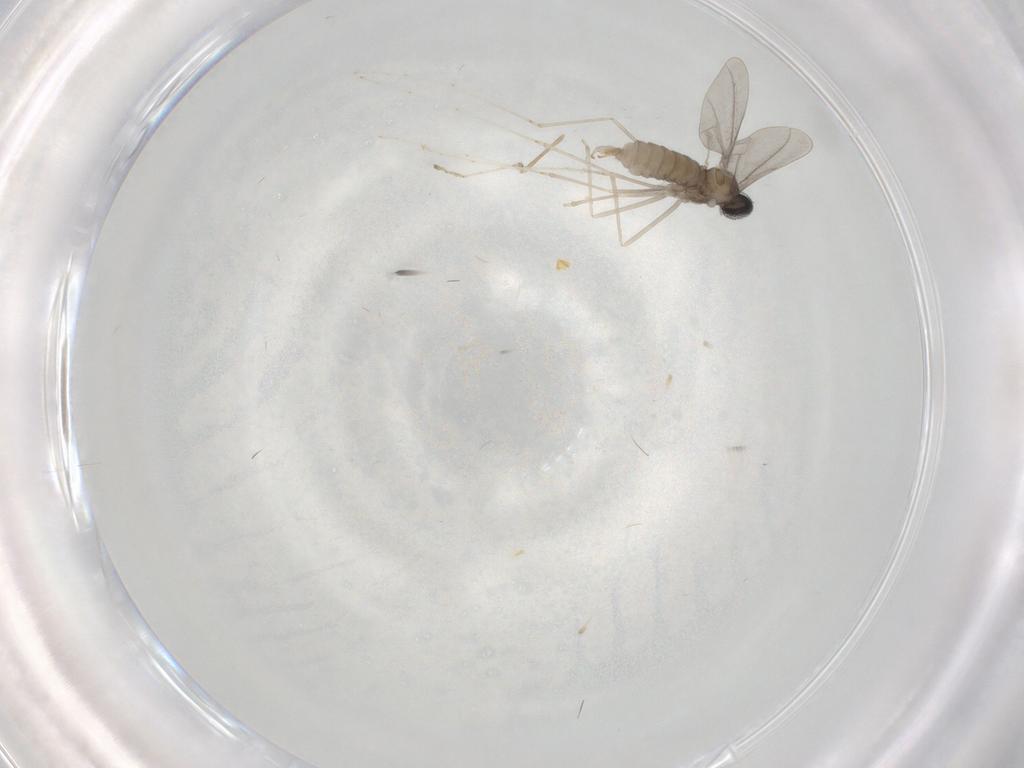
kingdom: Animalia
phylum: Arthropoda
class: Insecta
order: Diptera
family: Cecidomyiidae
